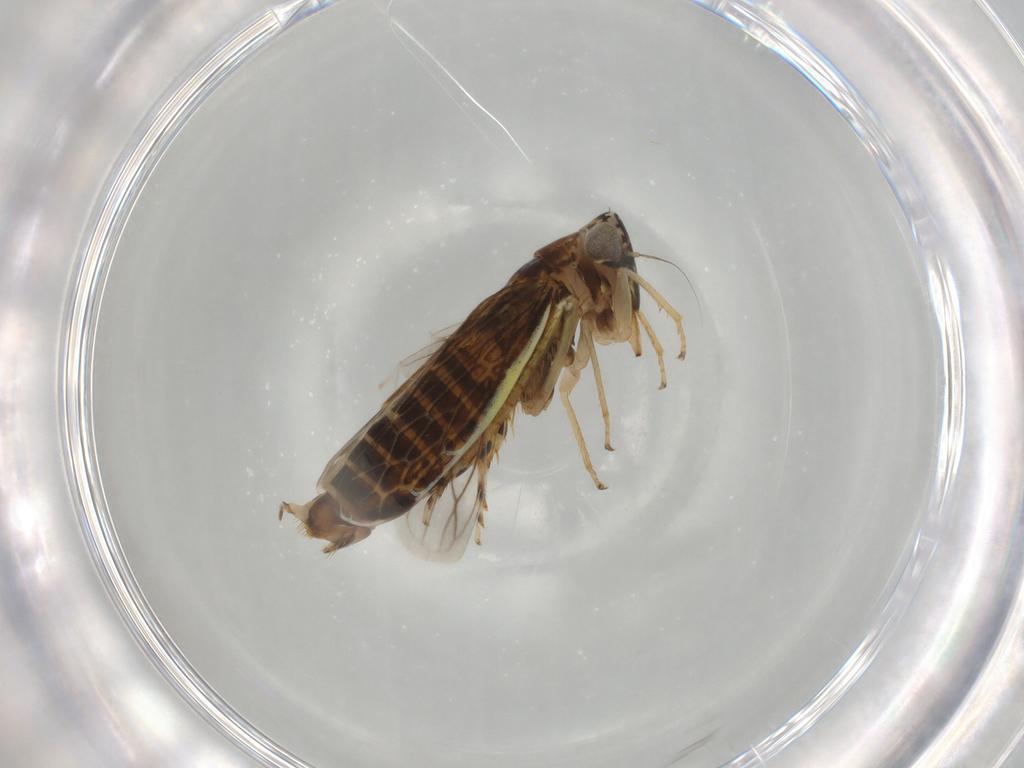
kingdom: Animalia
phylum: Arthropoda
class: Insecta
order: Hemiptera
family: Cicadellidae
